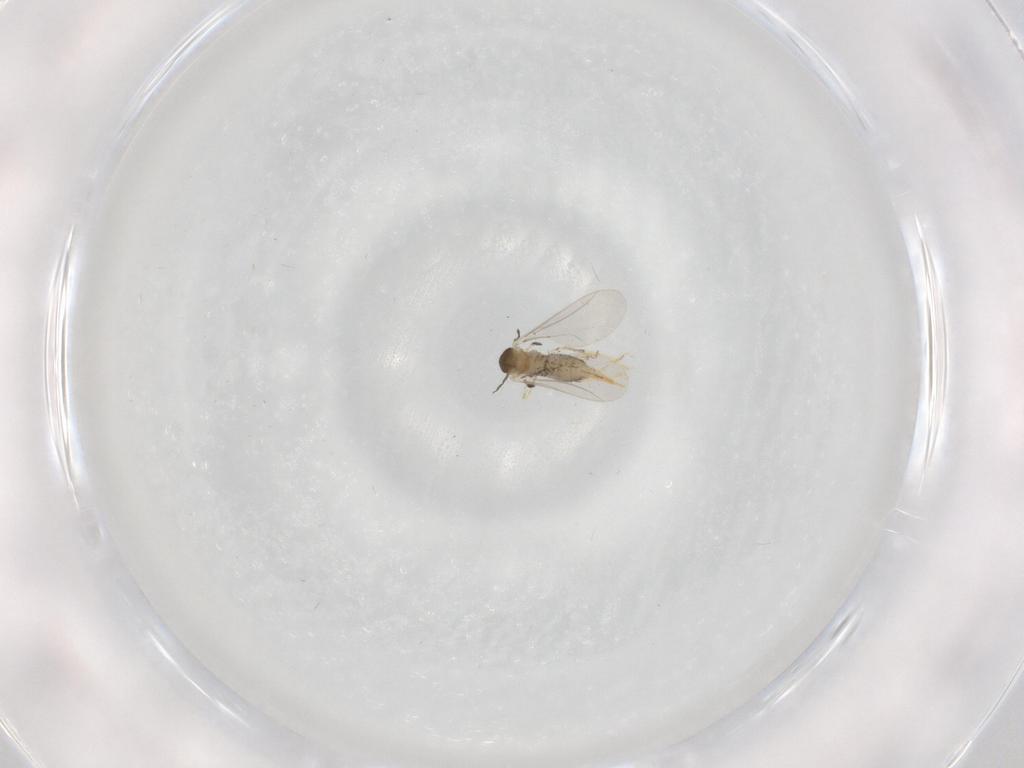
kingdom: Animalia
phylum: Arthropoda
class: Insecta
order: Diptera
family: Cecidomyiidae
